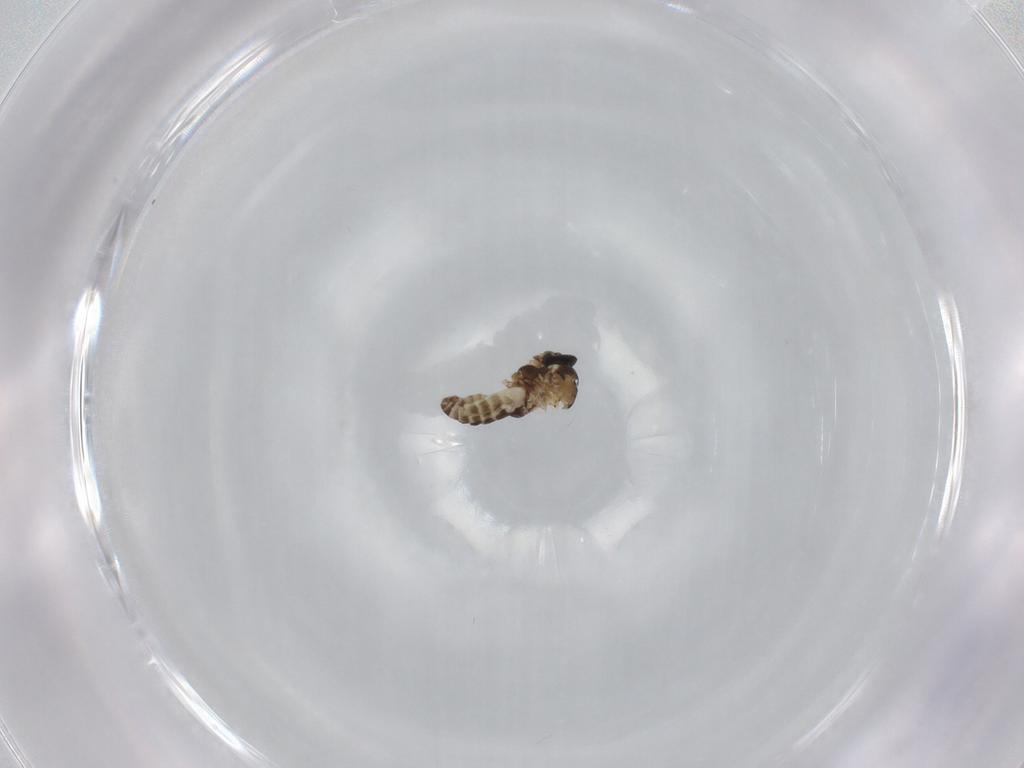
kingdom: Animalia
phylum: Arthropoda
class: Insecta
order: Diptera
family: Ceratopogonidae
